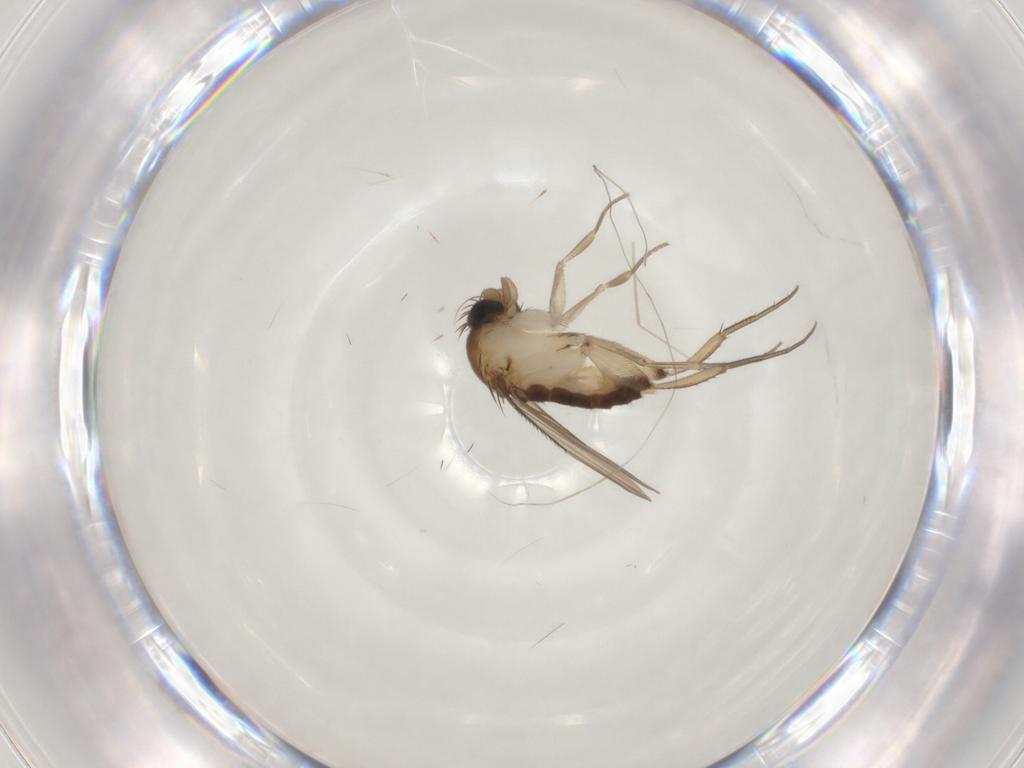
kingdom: Animalia
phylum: Arthropoda
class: Insecta
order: Diptera
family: Phoridae
